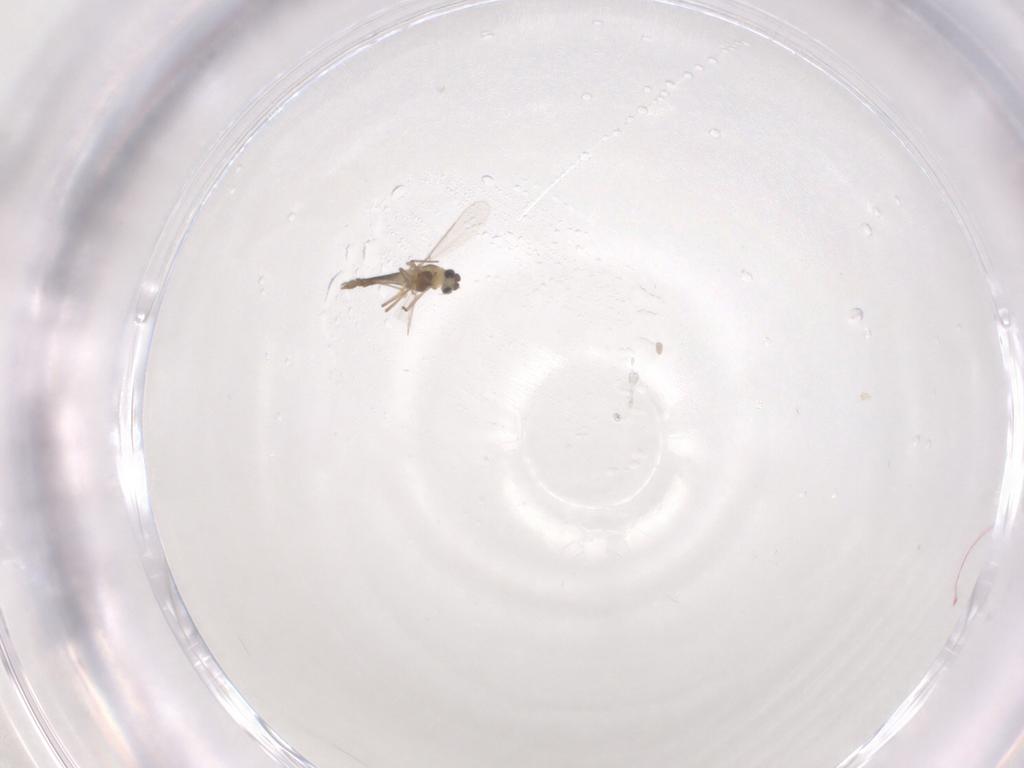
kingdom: Animalia
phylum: Arthropoda
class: Insecta
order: Diptera
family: Chironomidae
